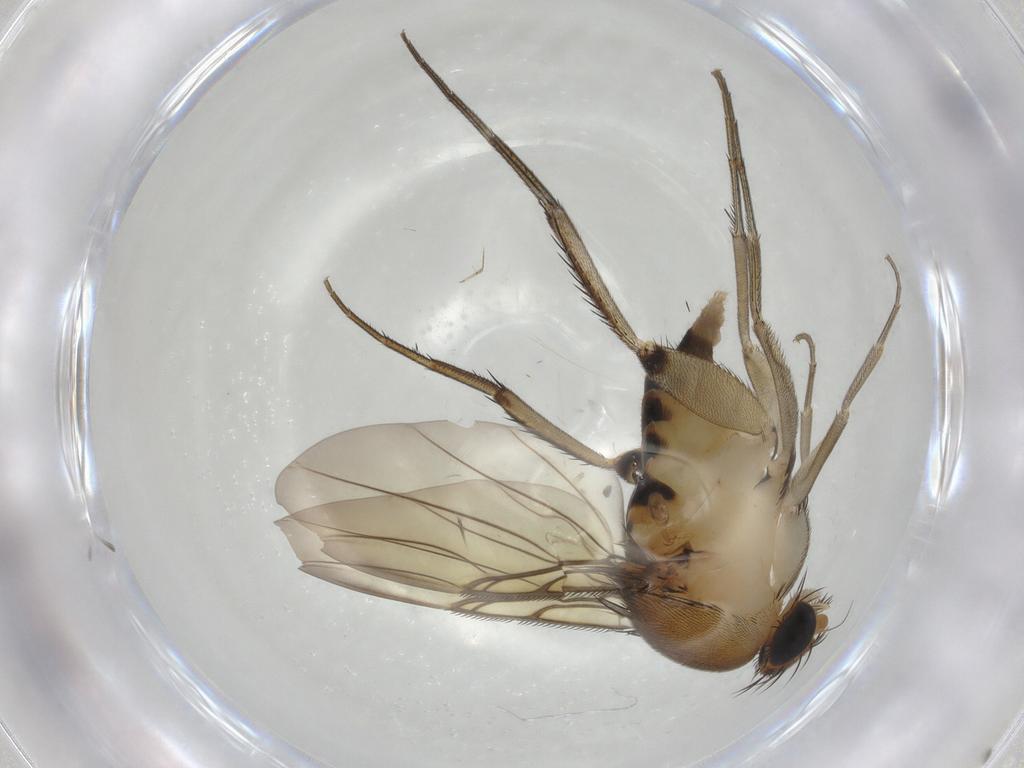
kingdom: Animalia
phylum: Arthropoda
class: Insecta
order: Diptera
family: Phoridae
